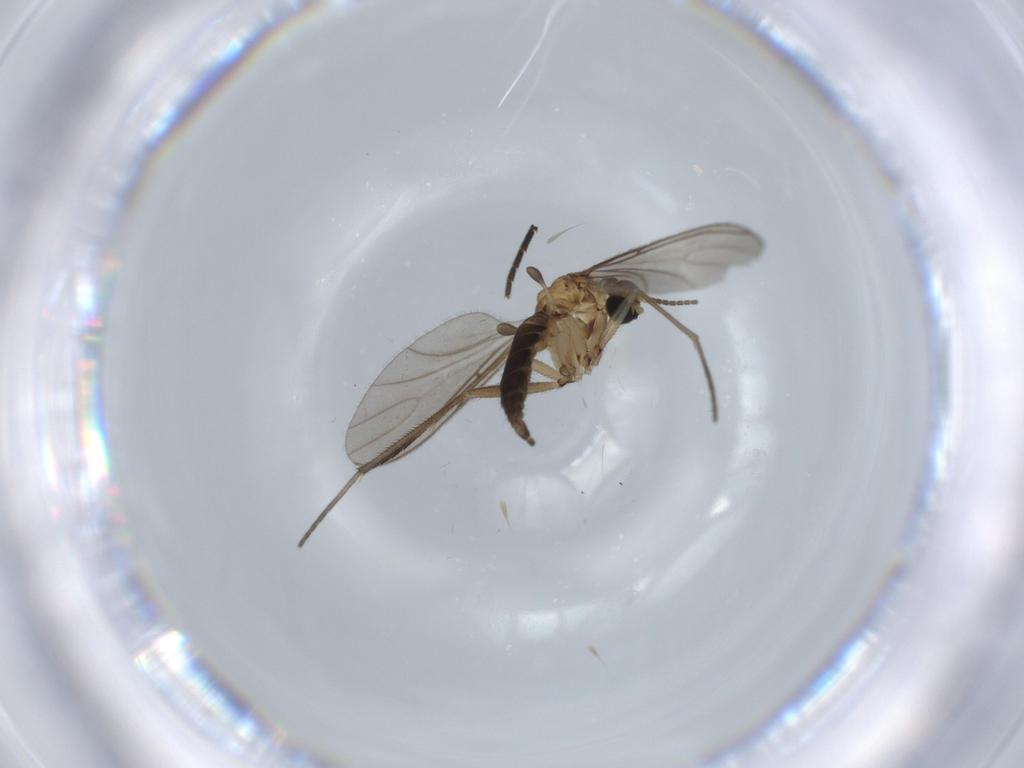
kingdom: Animalia
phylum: Arthropoda
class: Insecta
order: Diptera
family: Sciaridae
